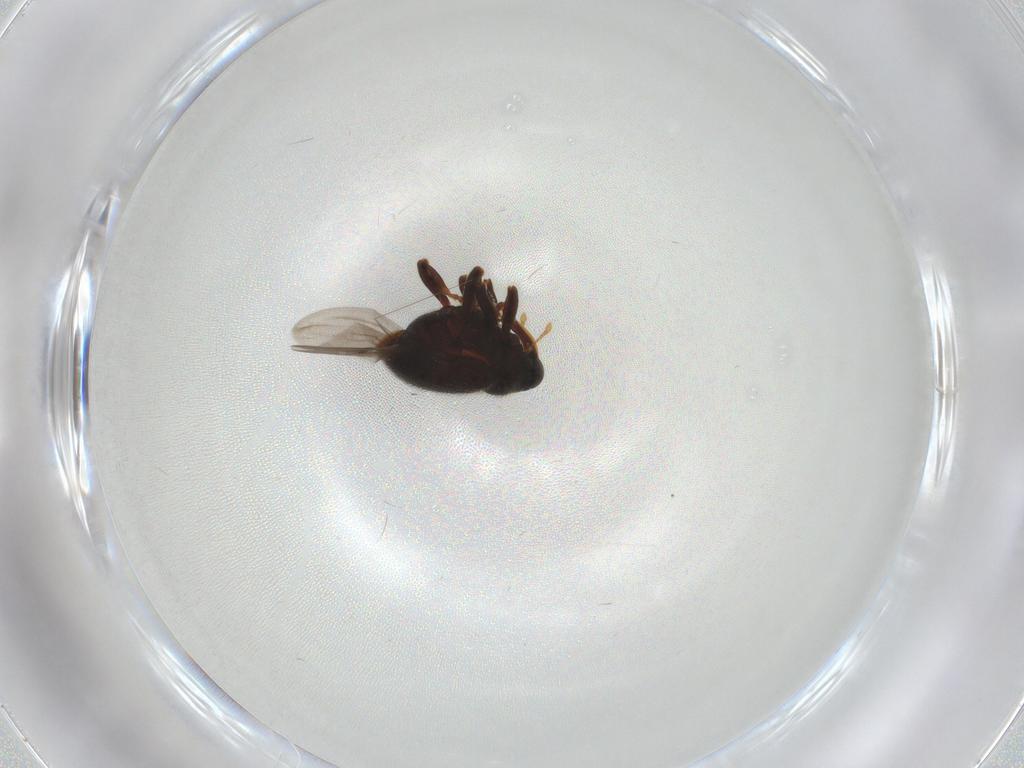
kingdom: Animalia
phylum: Arthropoda
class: Insecta
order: Coleoptera
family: Curculionidae
